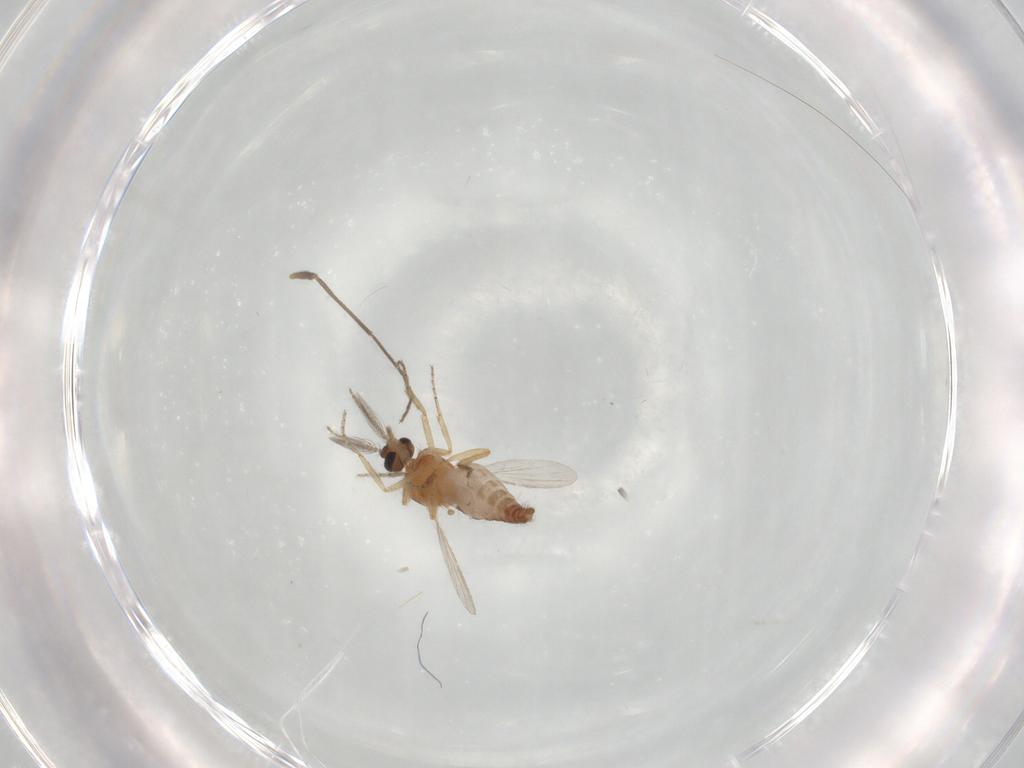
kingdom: Animalia
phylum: Arthropoda
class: Insecta
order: Diptera
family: Ceratopogonidae
